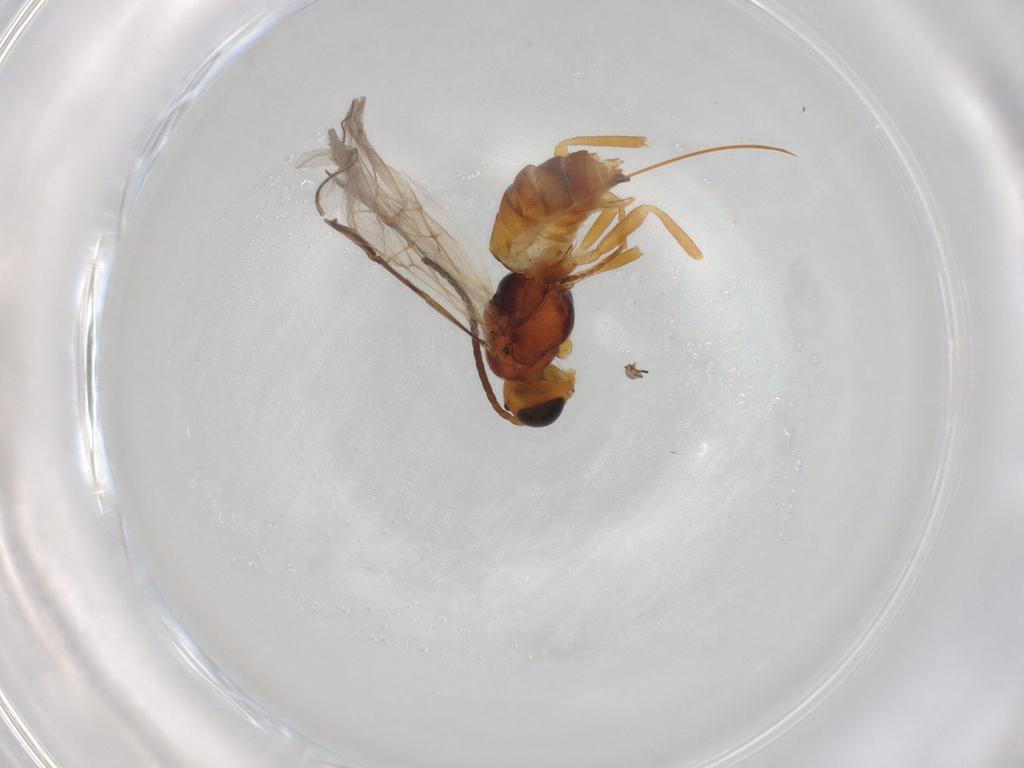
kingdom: Animalia
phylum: Arthropoda
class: Insecta
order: Hymenoptera
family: Braconidae
